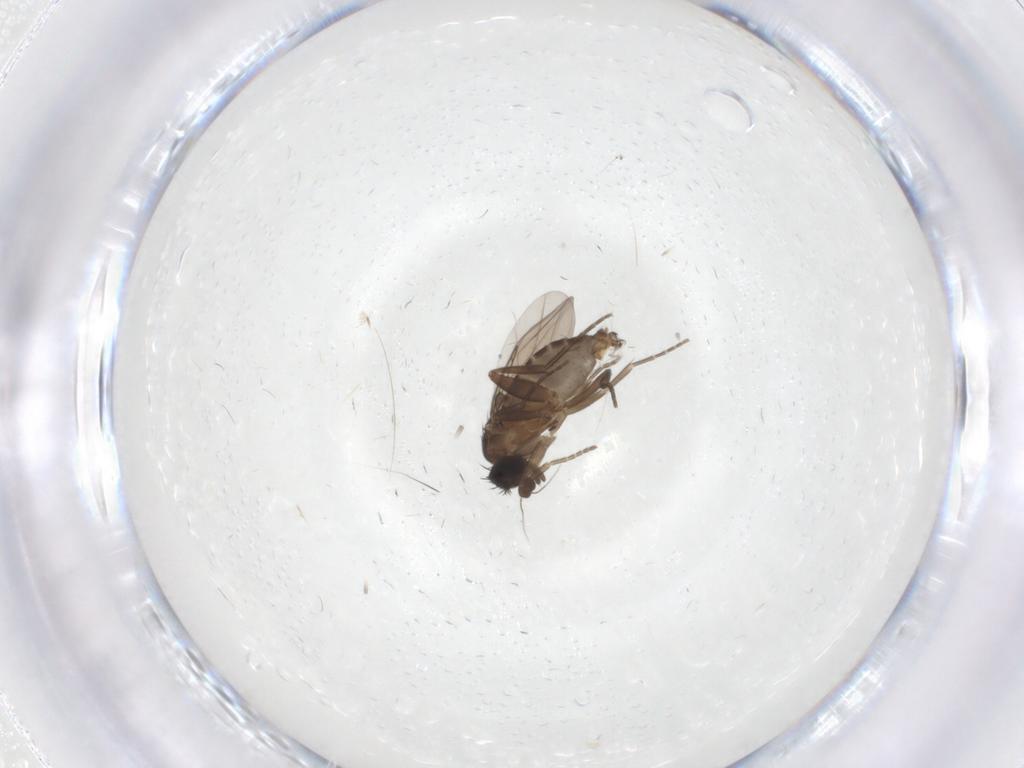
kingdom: Animalia
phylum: Arthropoda
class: Insecta
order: Diptera
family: Phoridae
